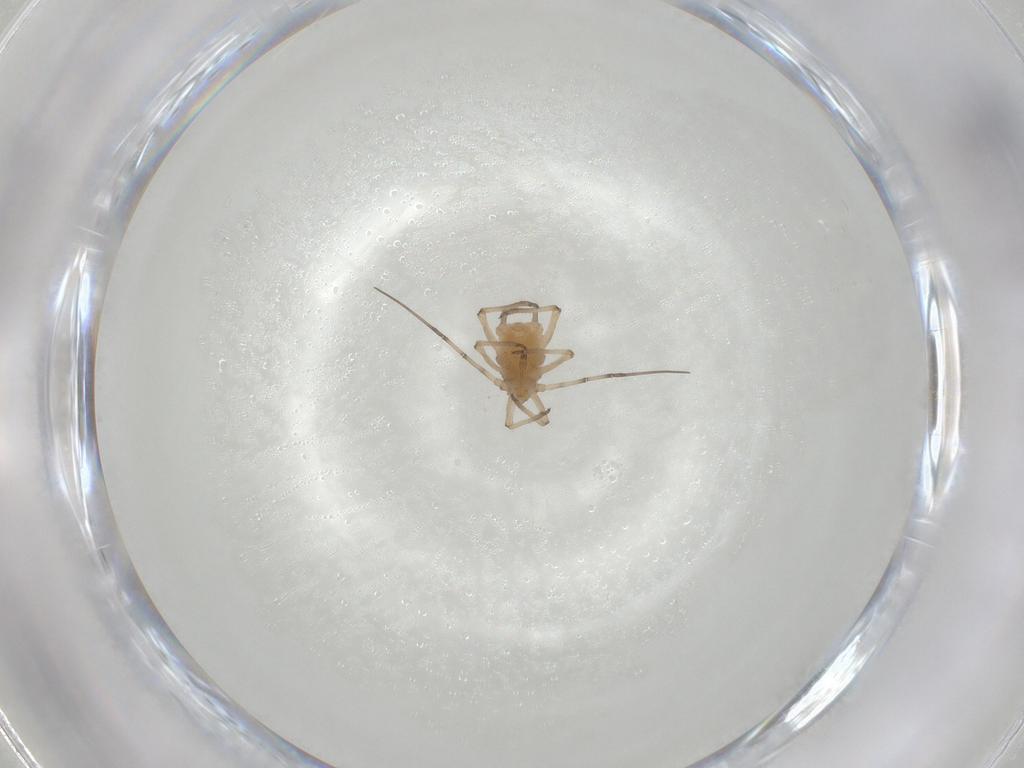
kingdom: Animalia
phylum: Arthropoda
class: Insecta
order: Hemiptera
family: Aphididae
